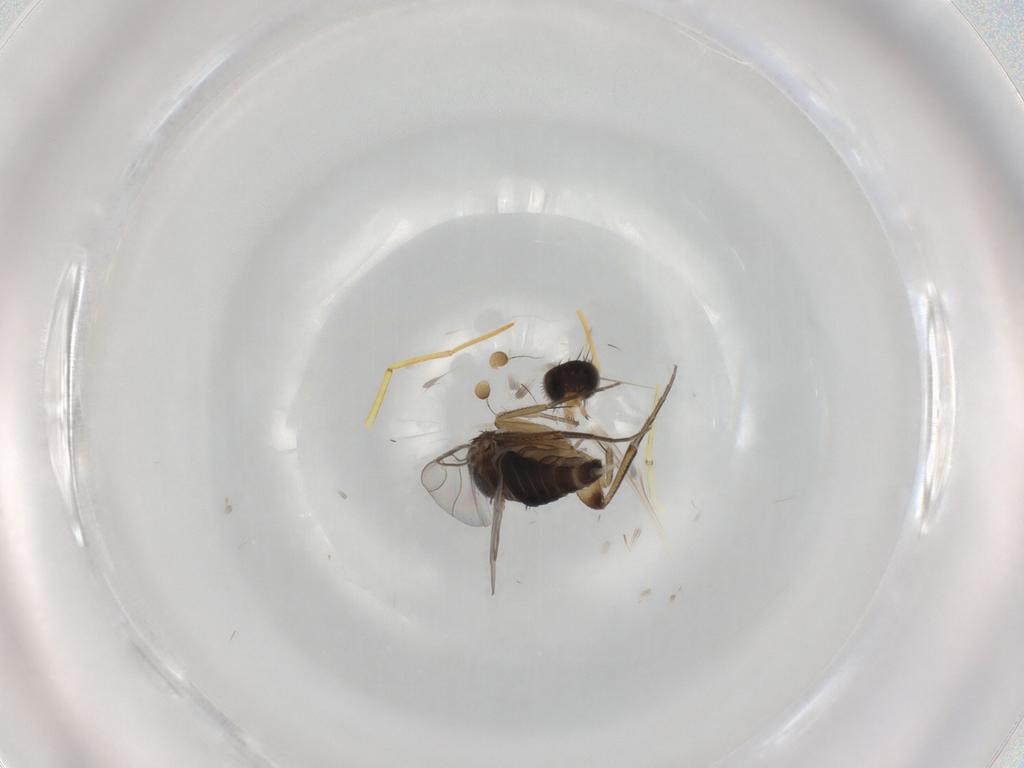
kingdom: Animalia
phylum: Arthropoda
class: Insecta
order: Diptera
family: Phoridae
